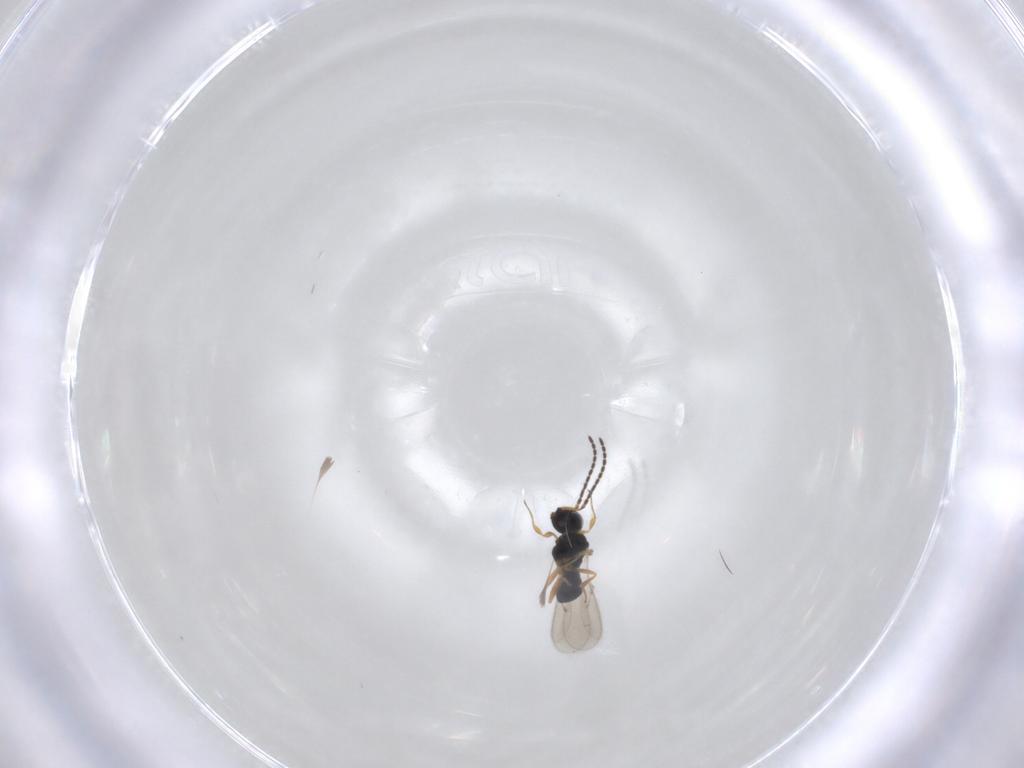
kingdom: Animalia
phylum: Arthropoda
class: Insecta
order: Hymenoptera
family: Scelionidae
